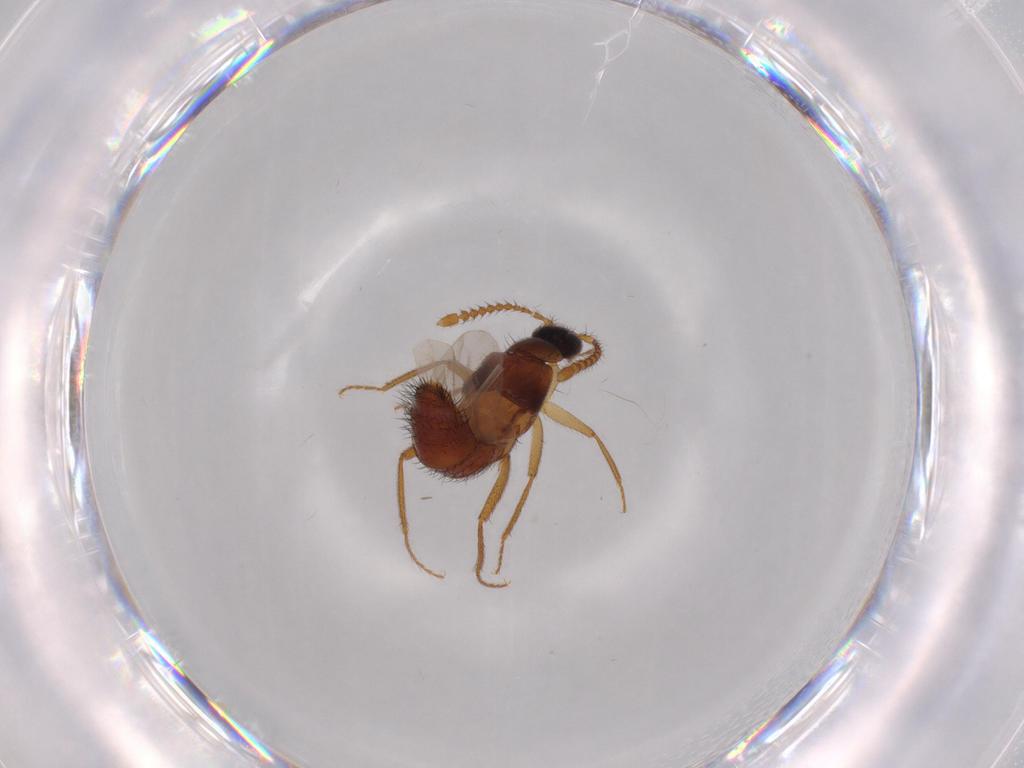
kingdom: Animalia
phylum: Arthropoda
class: Insecta
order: Coleoptera
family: Staphylinidae
